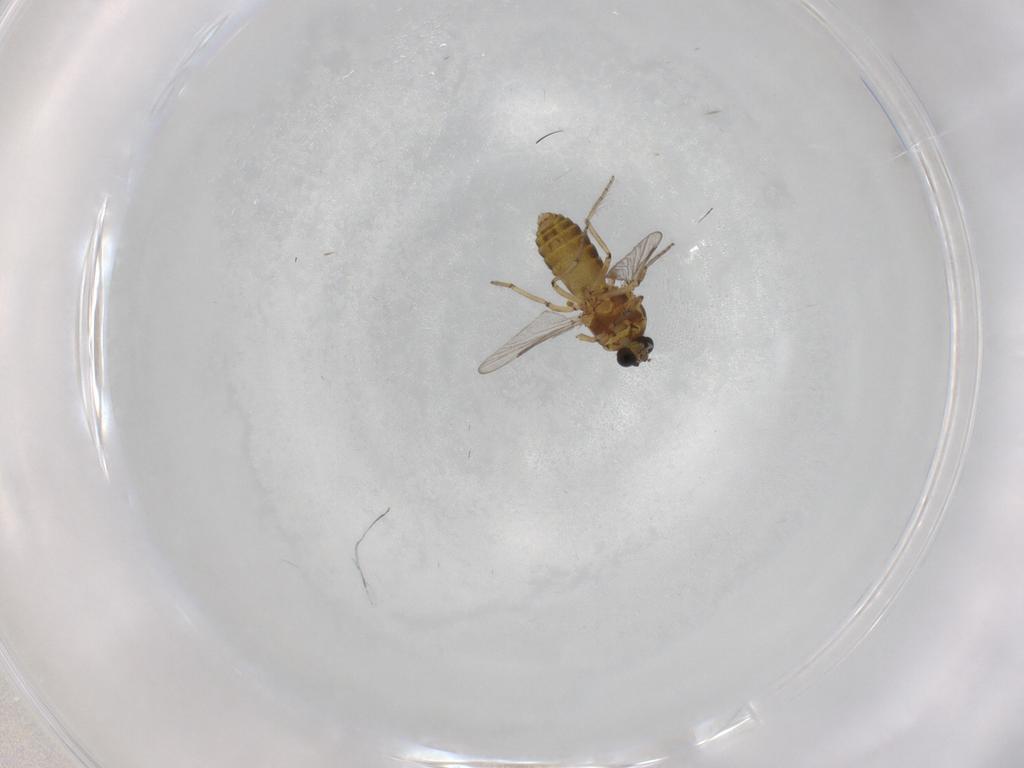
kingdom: Animalia
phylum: Arthropoda
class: Insecta
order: Diptera
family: Ceratopogonidae
